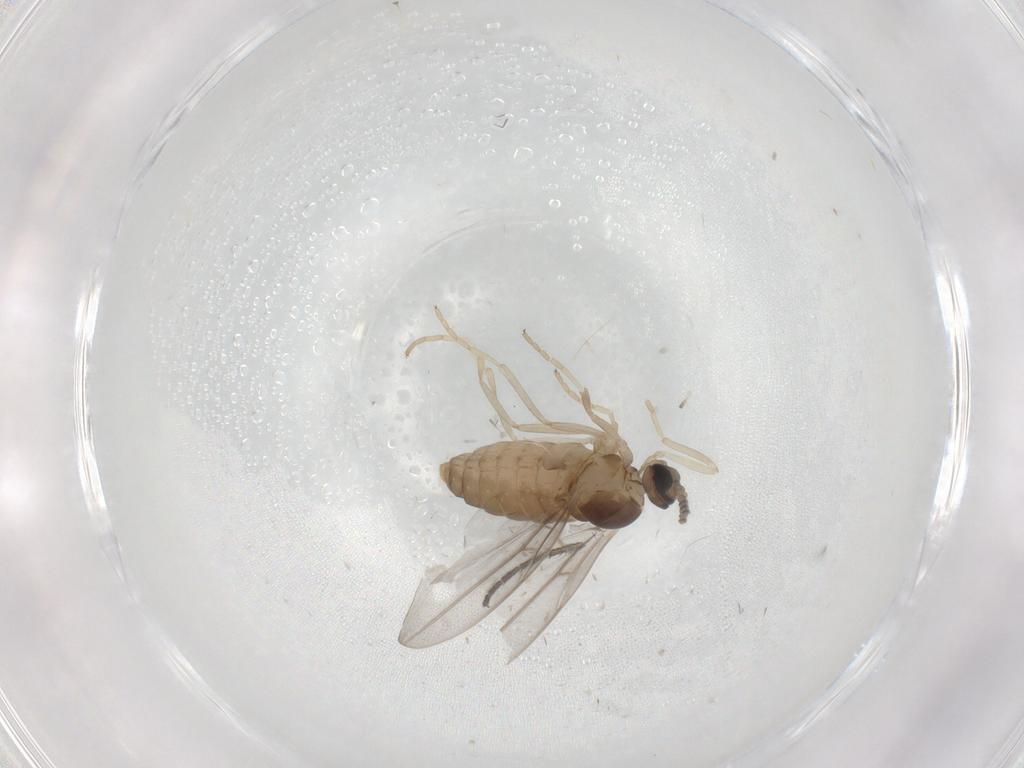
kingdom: Animalia
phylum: Arthropoda
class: Insecta
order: Diptera
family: Cecidomyiidae
